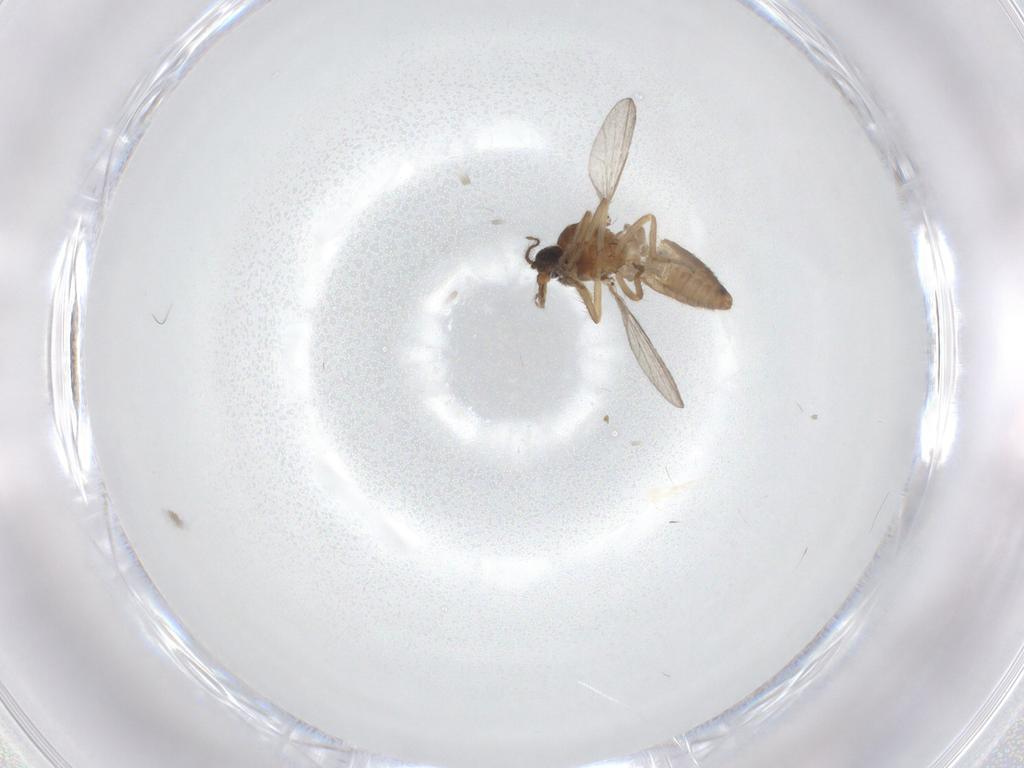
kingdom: Animalia
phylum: Arthropoda
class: Insecta
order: Diptera
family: Ceratopogonidae
